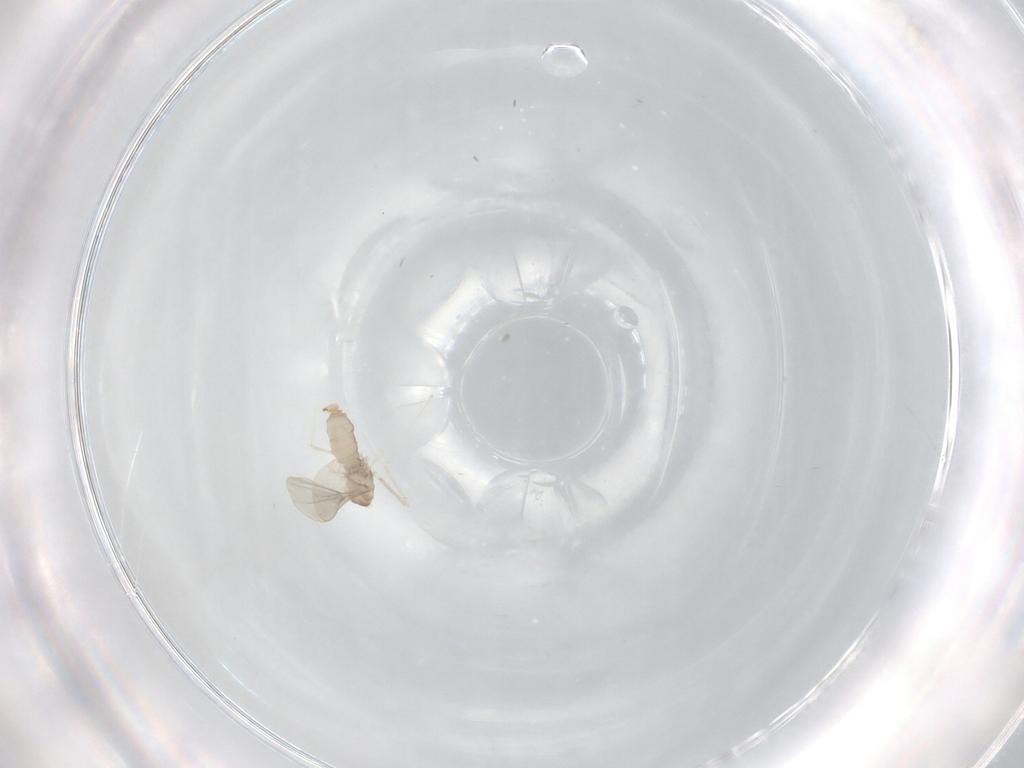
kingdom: Animalia
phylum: Arthropoda
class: Insecta
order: Diptera
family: Cecidomyiidae
